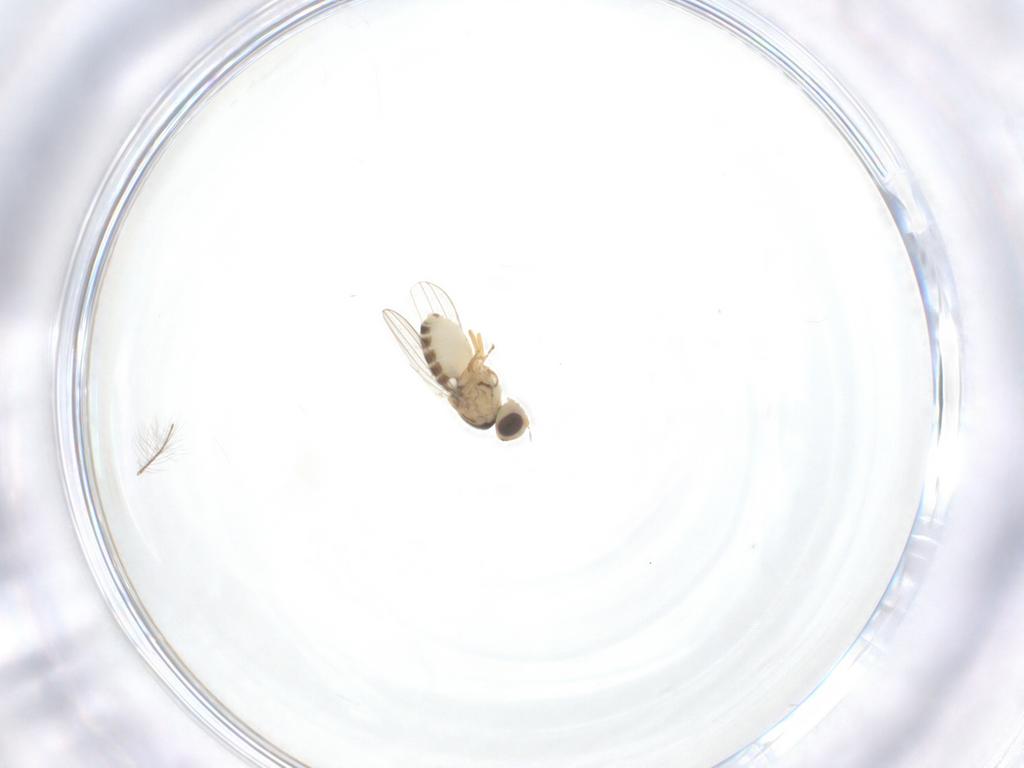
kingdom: Animalia
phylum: Arthropoda
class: Insecta
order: Diptera
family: Chyromyidae
